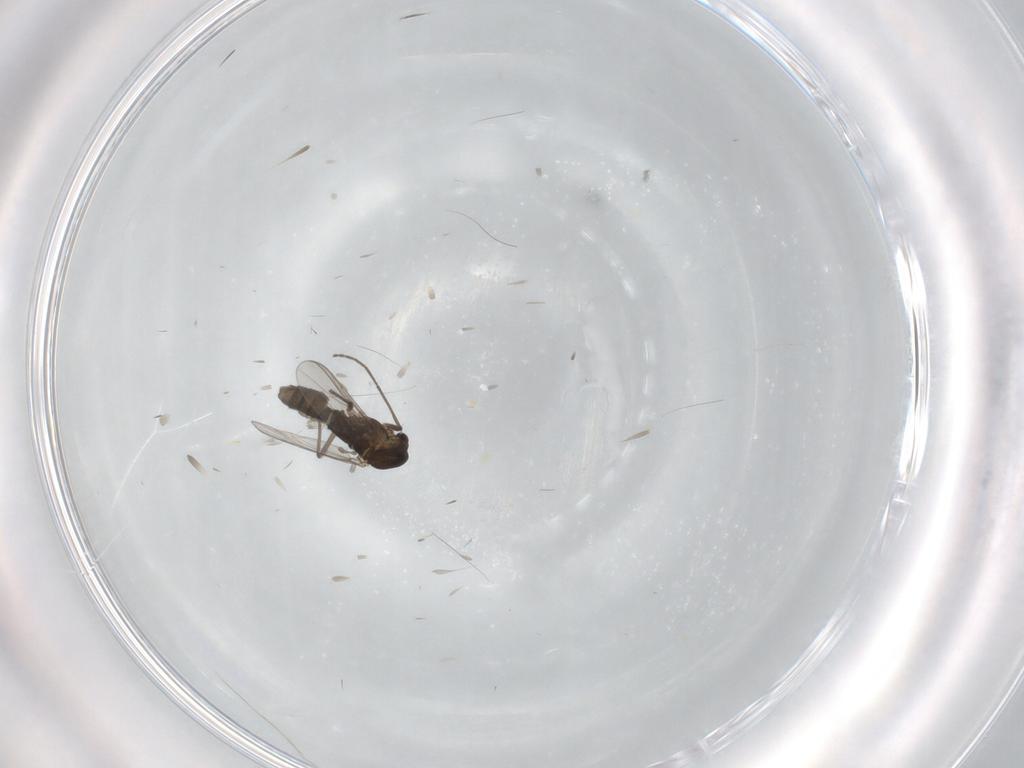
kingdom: Animalia
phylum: Arthropoda
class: Insecta
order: Diptera
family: Chironomidae
